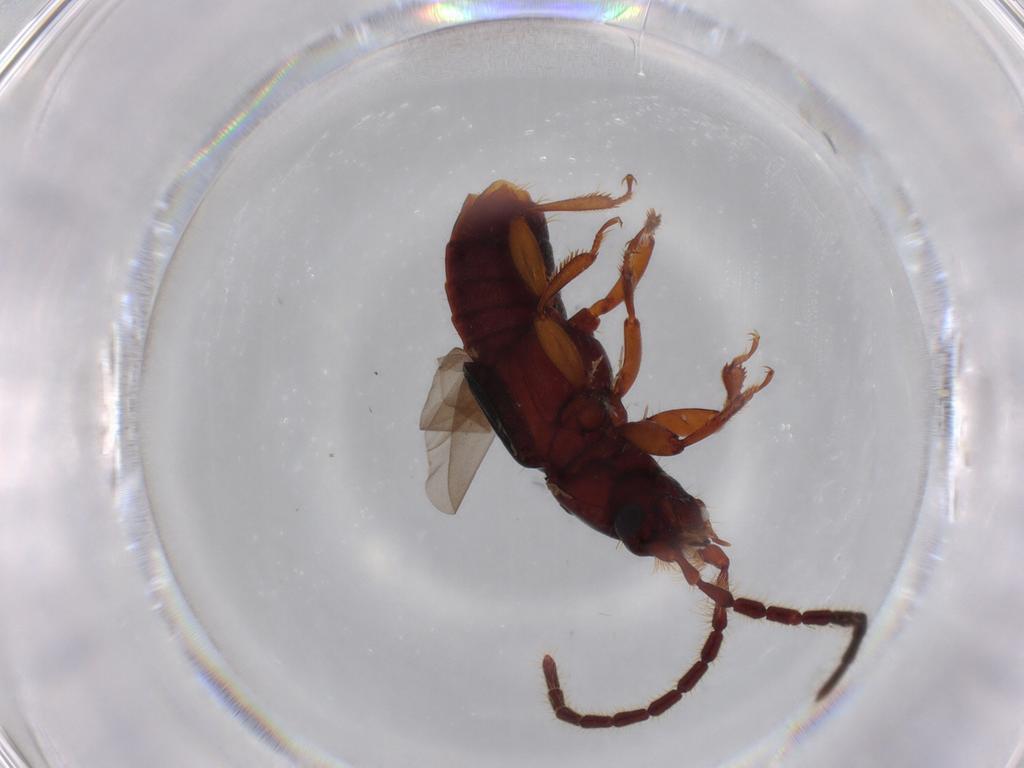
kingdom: Animalia
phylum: Arthropoda
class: Insecta
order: Coleoptera
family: Staphylinidae
